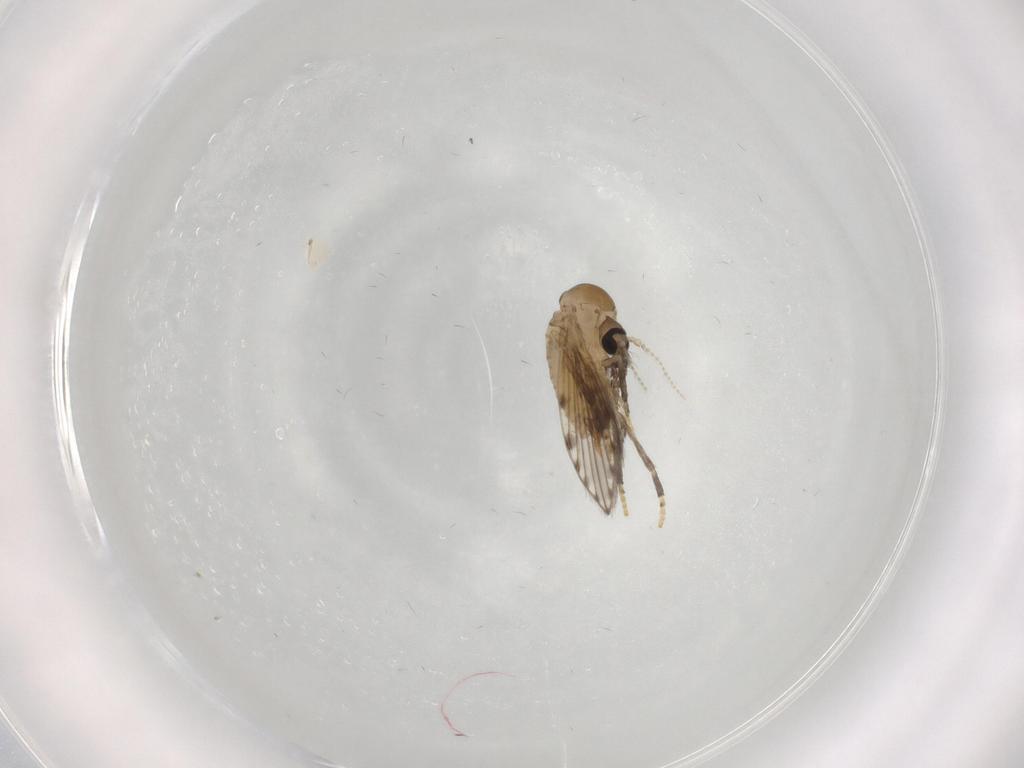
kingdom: Animalia
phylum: Arthropoda
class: Insecta
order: Diptera
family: Psychodidae
